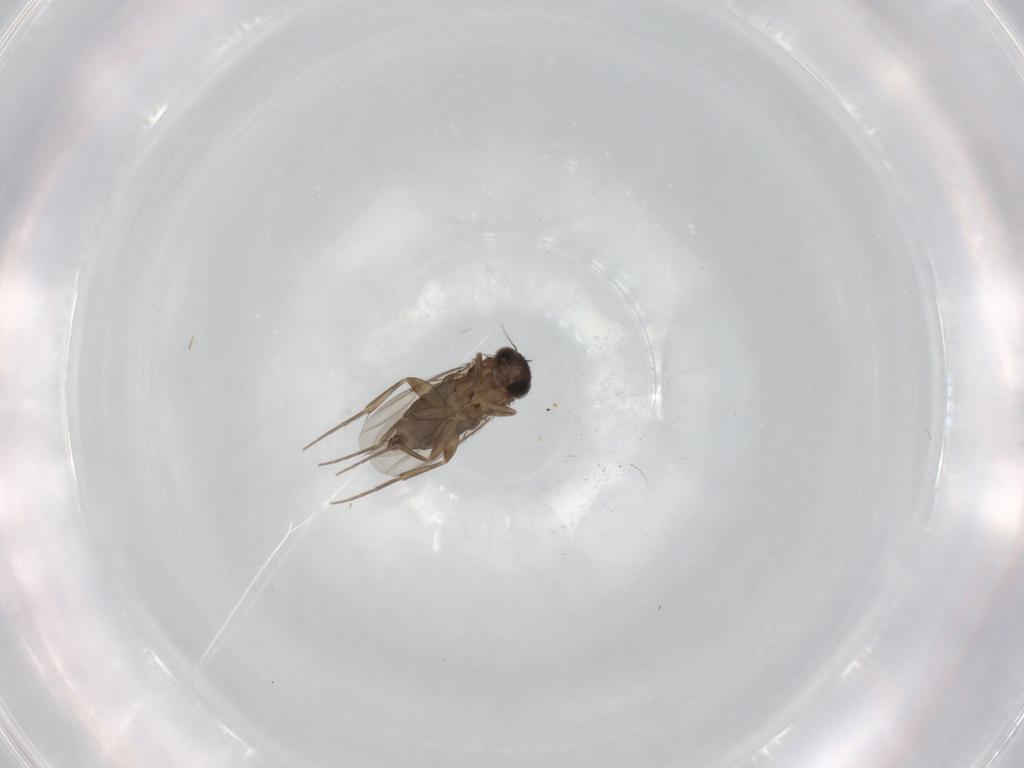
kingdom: Animalia
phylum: Arthropoda
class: Insecta
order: Diptera
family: Phoridae
